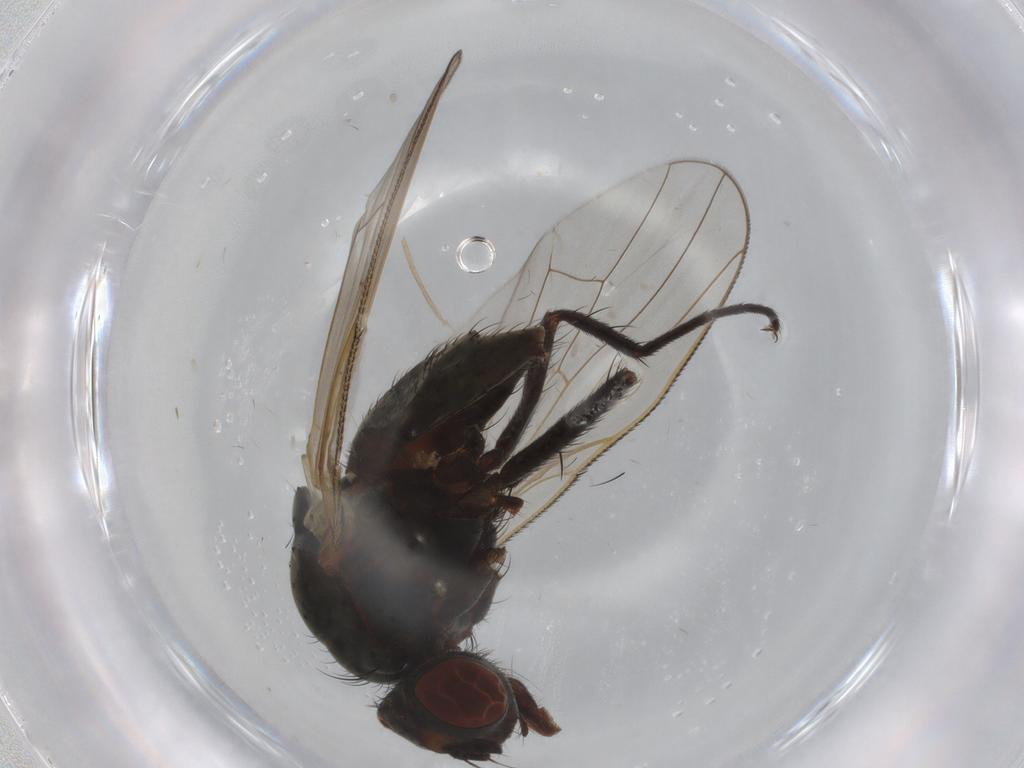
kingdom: Animalia
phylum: Arthropoda
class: Insecta
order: Diptera
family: Anthomyiidae
